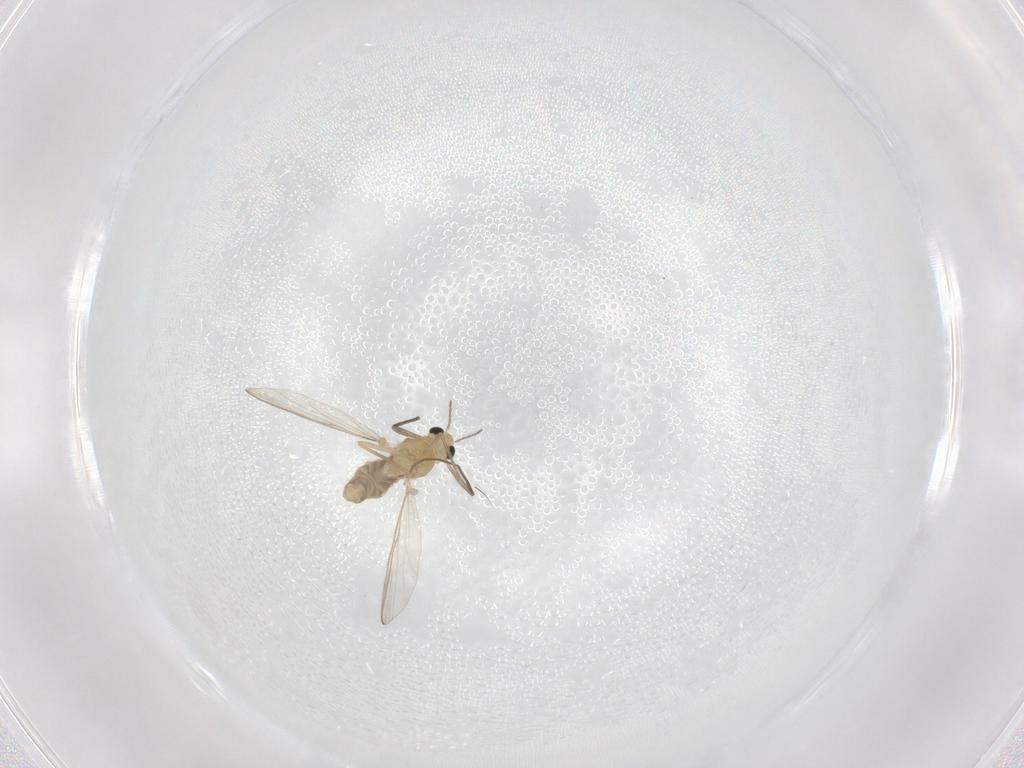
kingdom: Animalia
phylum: Arthropoda
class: Insecta
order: Diptera
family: Chironomidae
